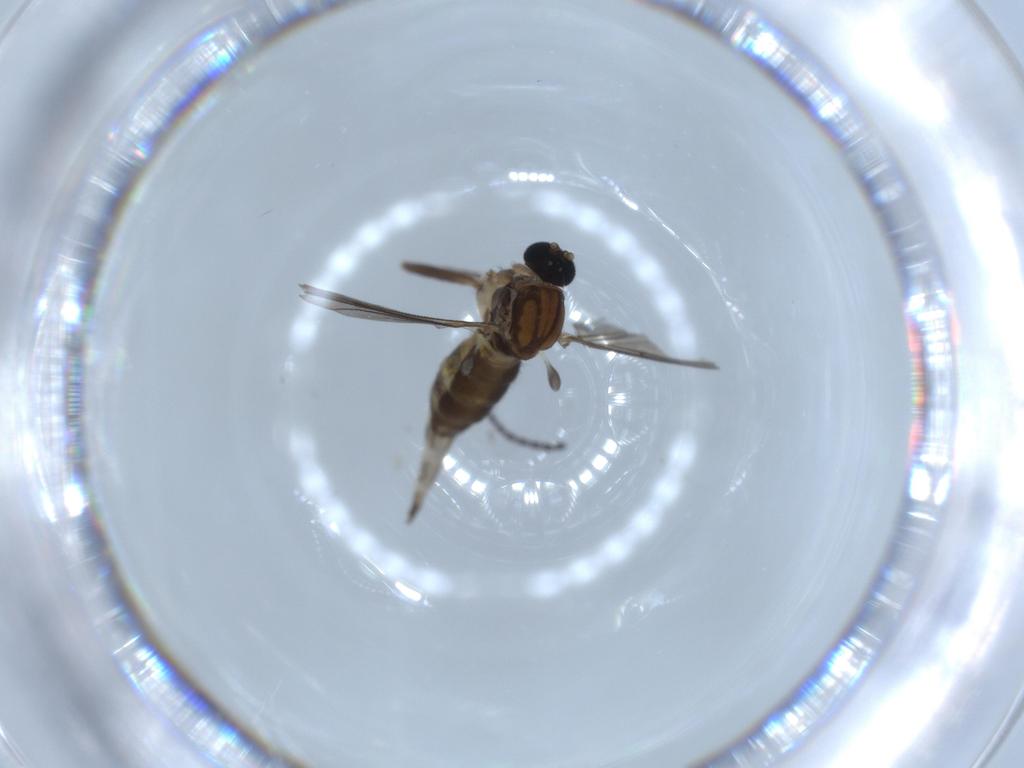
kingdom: Animalia
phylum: Arthropoda
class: Insecta
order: Diptera
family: Sciaridae
